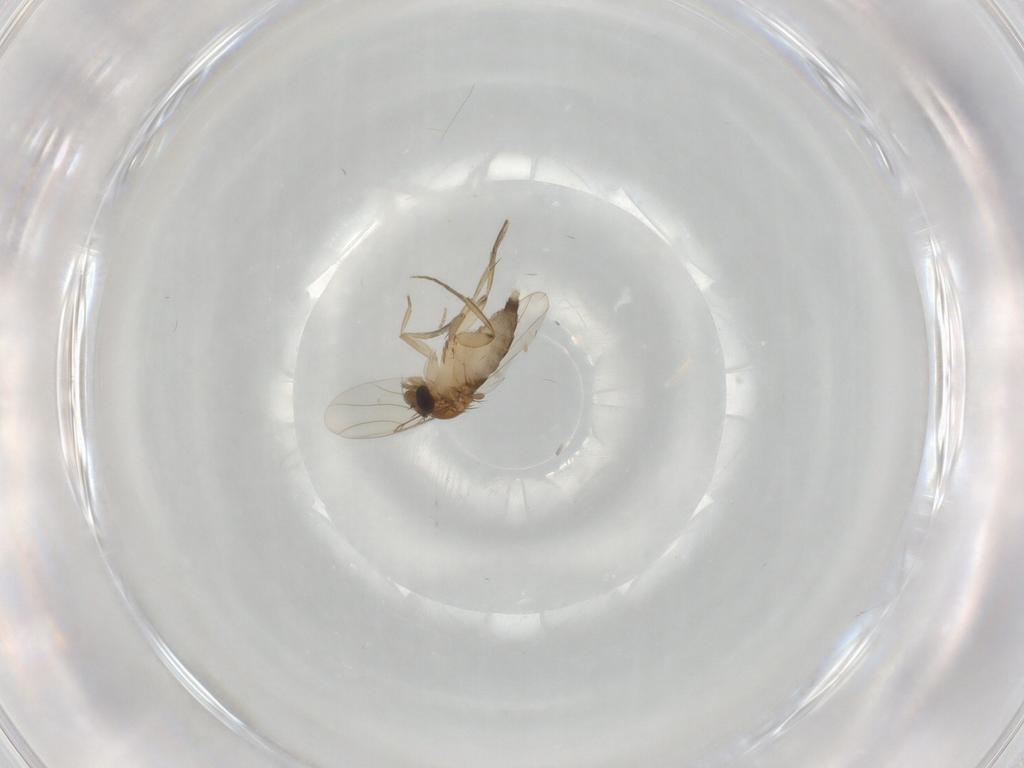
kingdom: Animalia
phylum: Arthropoda
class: Insecta
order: Diptera
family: Phoridae
